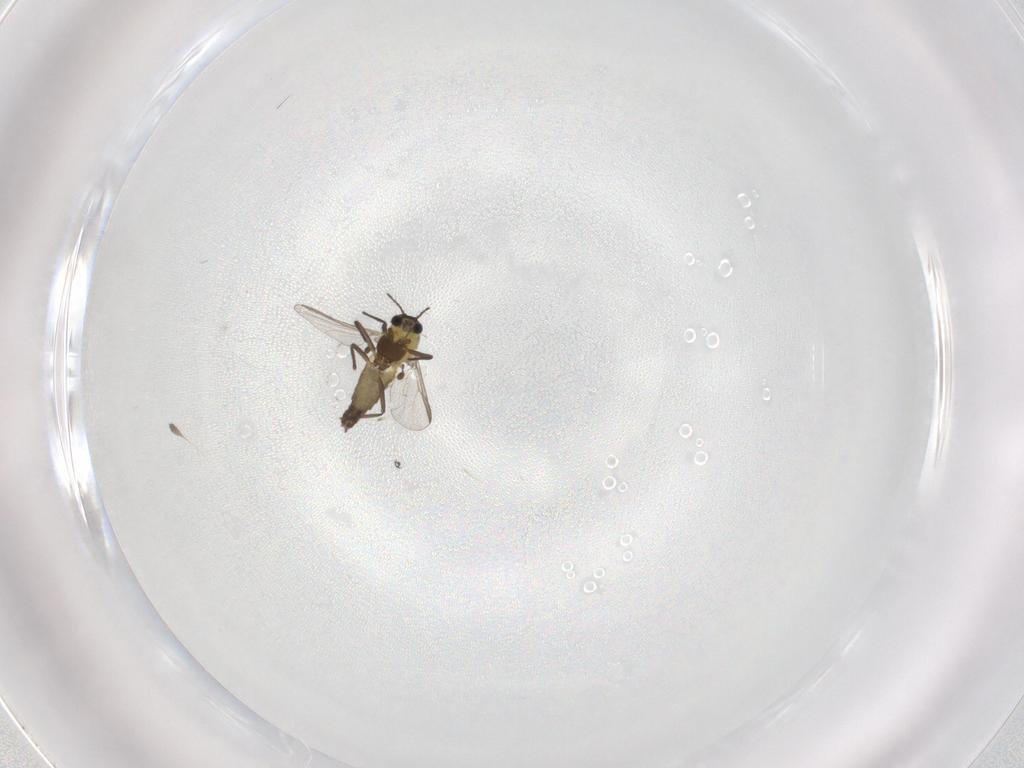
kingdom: Animalia
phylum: Arthropoda
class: Insecta
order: Diptera
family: Chironomidae
